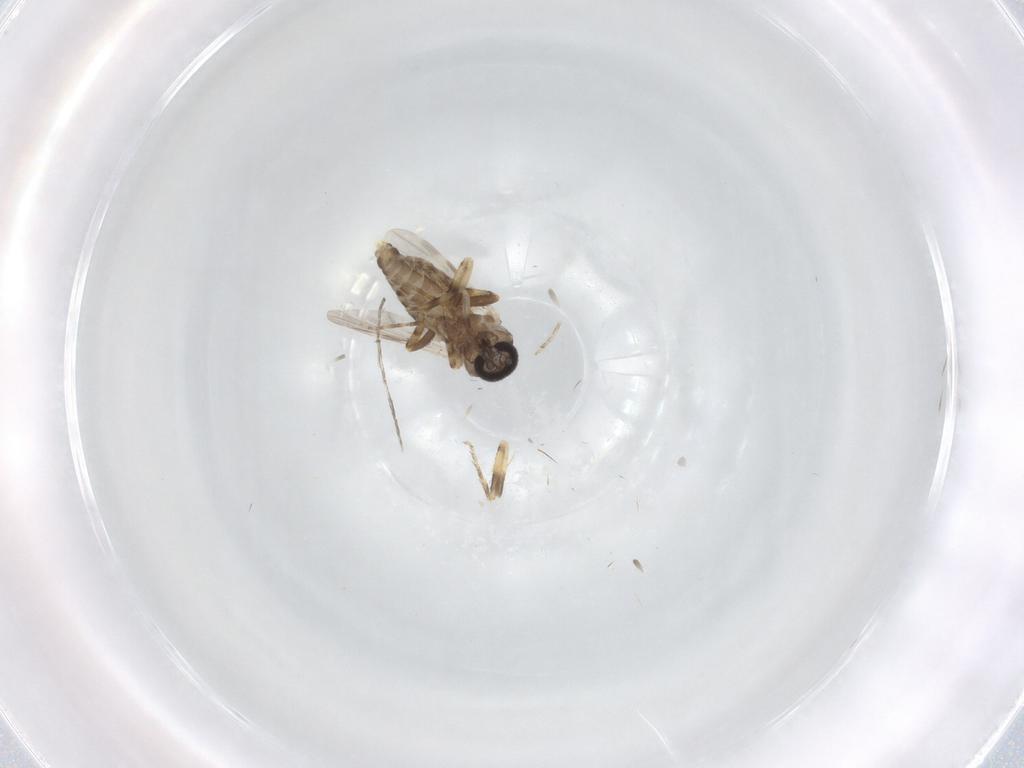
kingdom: Animalia
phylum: Arthropoda
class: Insecta
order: Diptera
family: Ceratopogonidae
